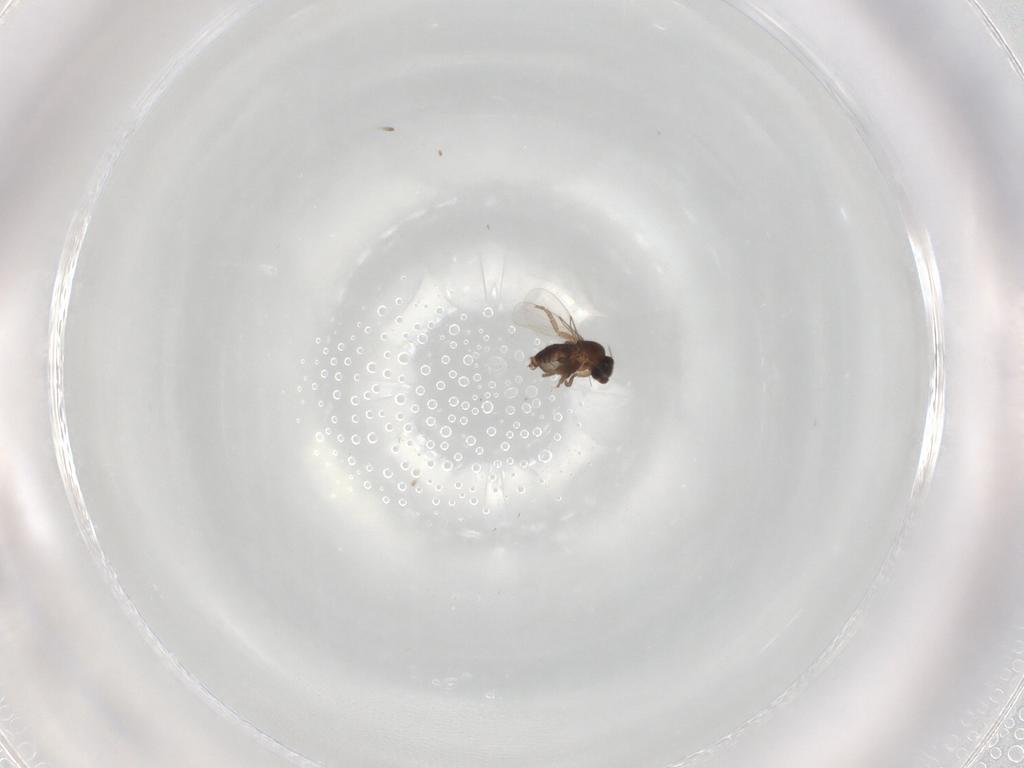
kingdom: Animalia
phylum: Arthropoda
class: Insecta
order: Diptera
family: Phoridae
